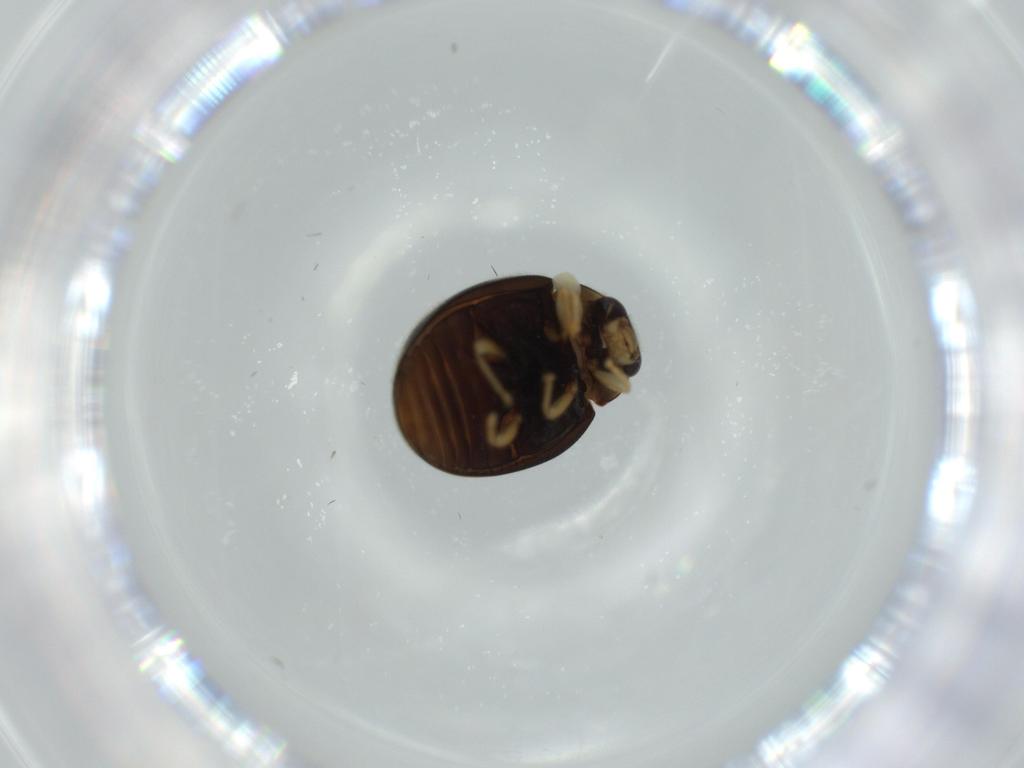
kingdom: Animalia
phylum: Arthropoda
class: Insecta
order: Coleoptera
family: Coccinellidae
